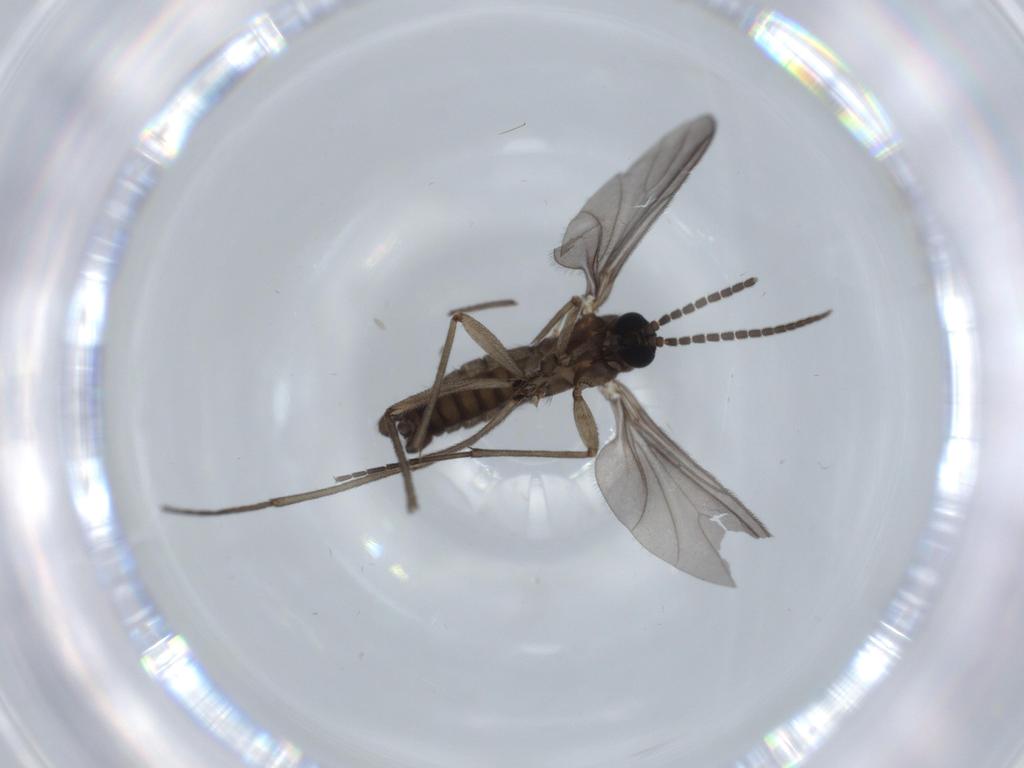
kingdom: Animalia
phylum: Arthropoda
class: Insecta
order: Diptera
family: Sciaridae
